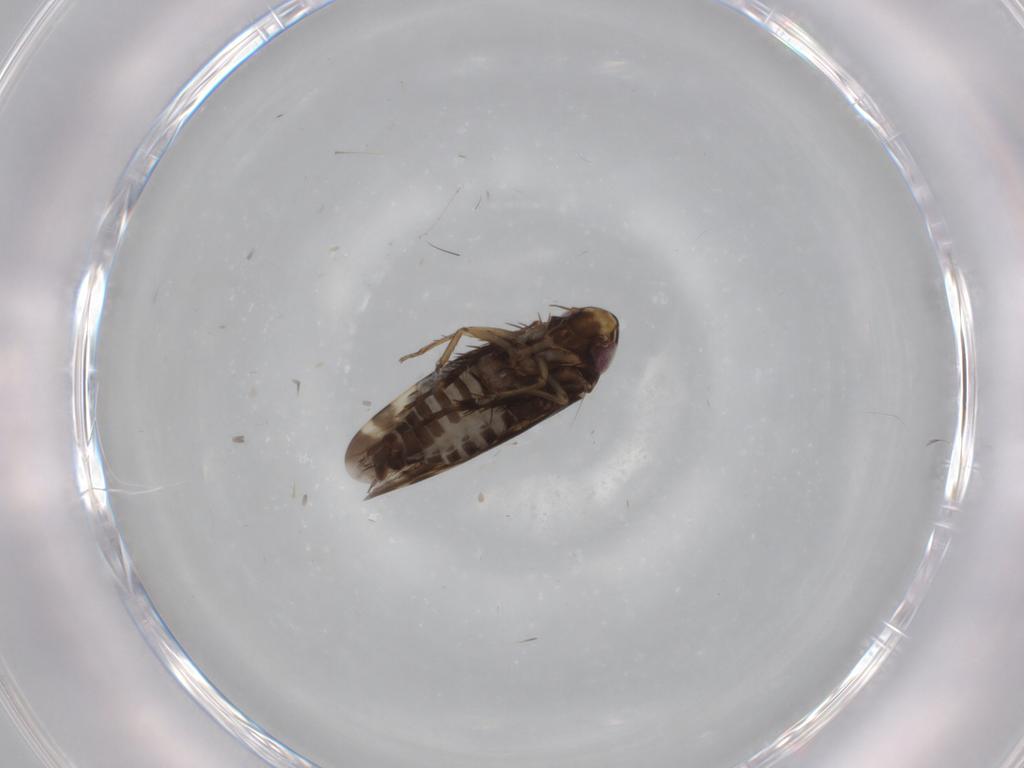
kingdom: Animalia
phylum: Arthropoda
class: Insecta
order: Hemiptera
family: Cicadellidae
